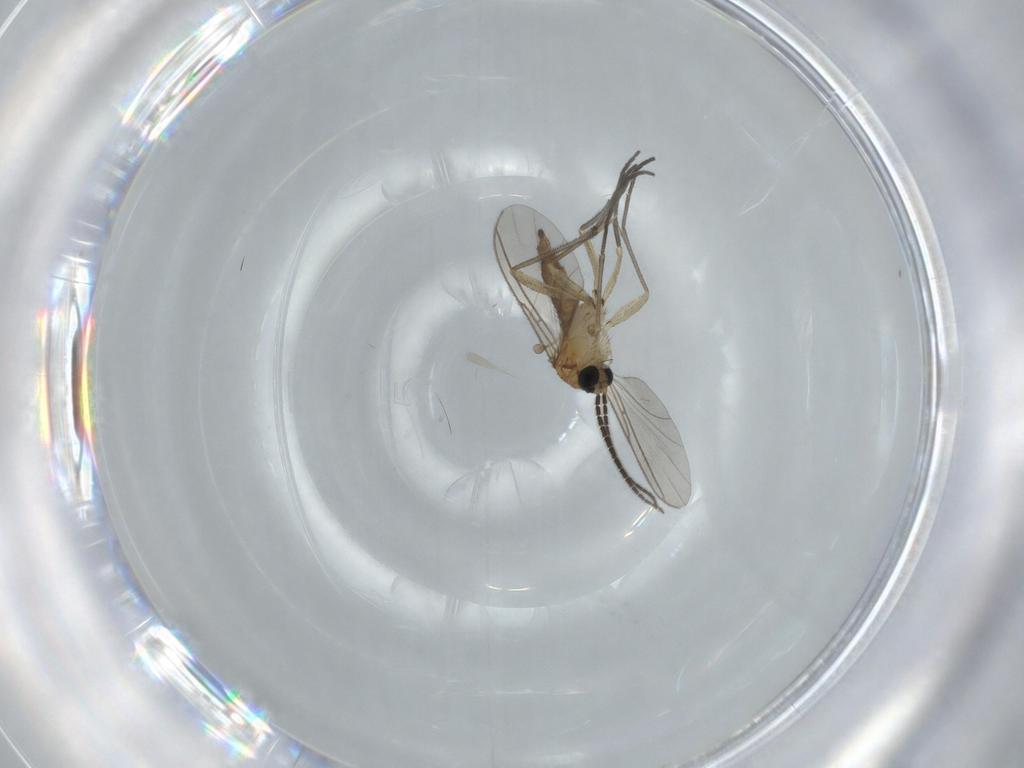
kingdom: Animalia
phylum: Arthropoda
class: Insecta
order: Diptera
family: Sciaridae
